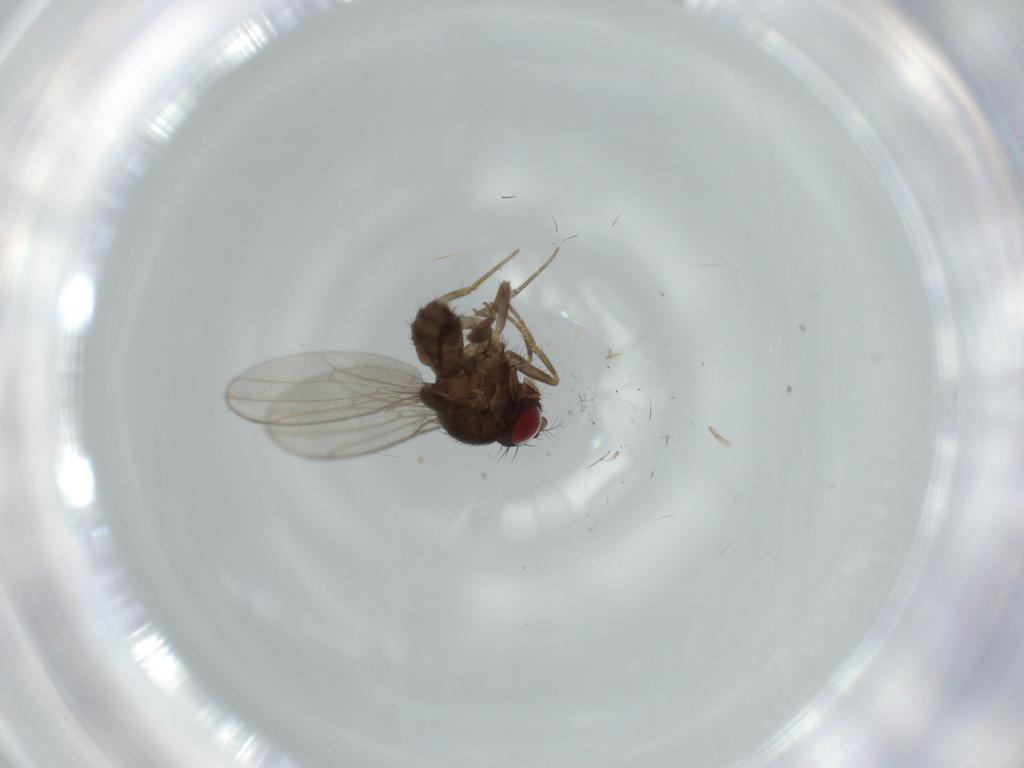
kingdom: Animalia
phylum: Arthropoda
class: Insecta
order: Diptera
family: Drosophilidae
